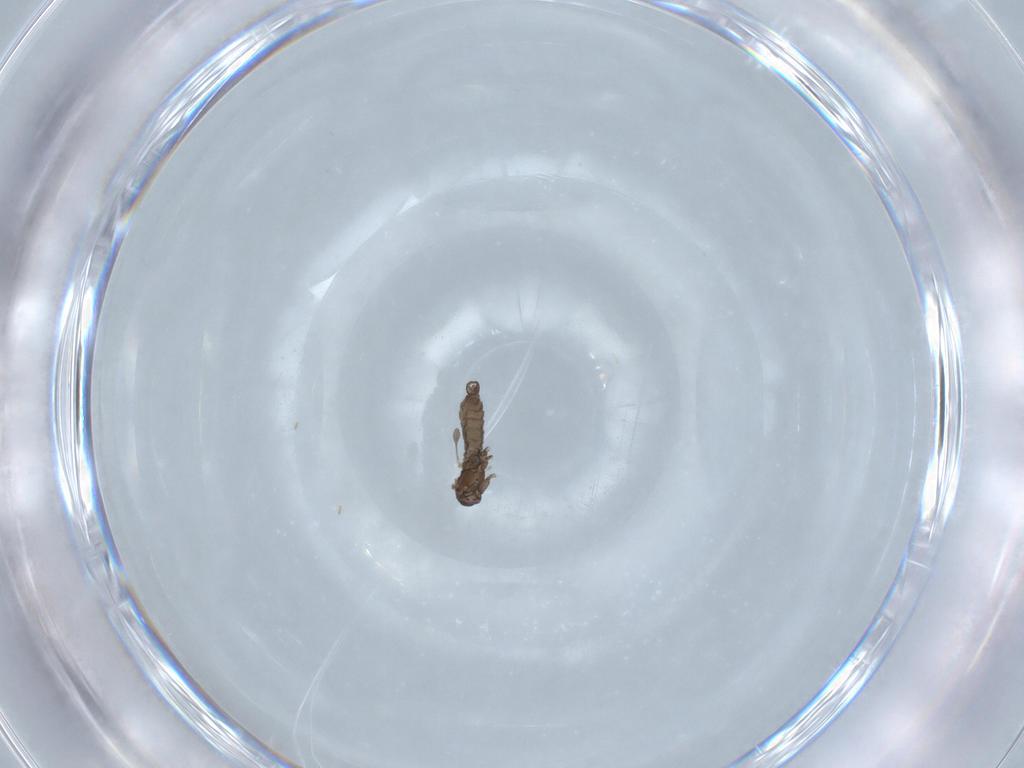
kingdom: Animalia
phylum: Arthropoda
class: Insecta
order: Diptera
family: Sciaridae
